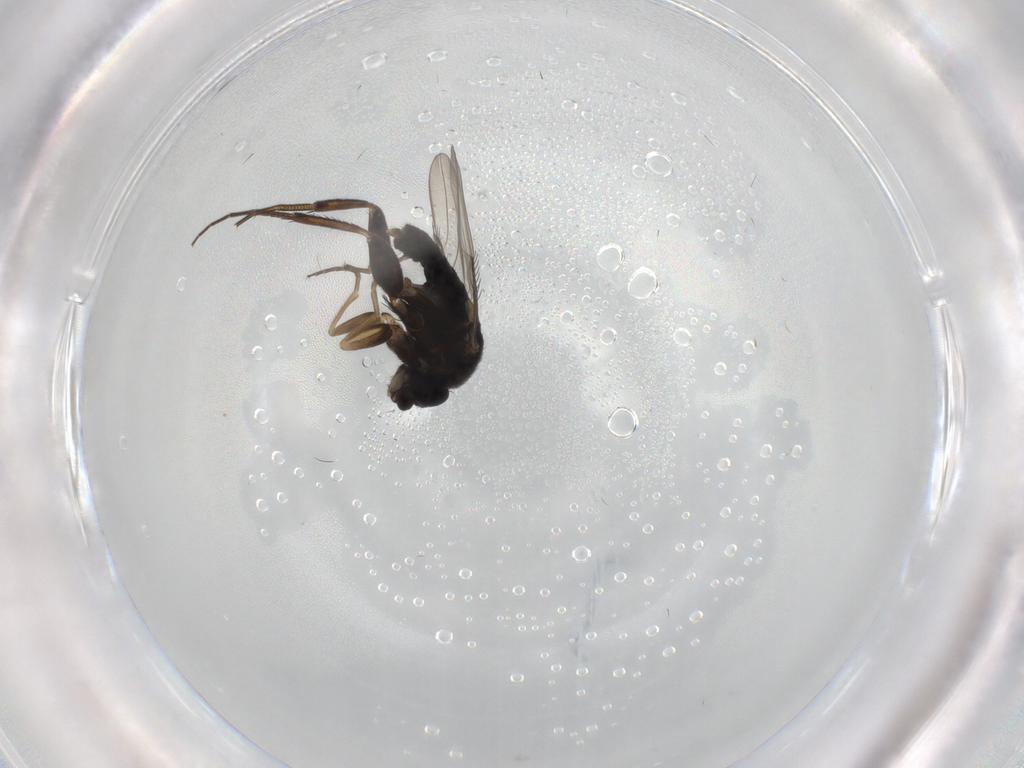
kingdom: Animalia
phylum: Arthropoda
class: Insecta
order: Diptera
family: Phoridae
